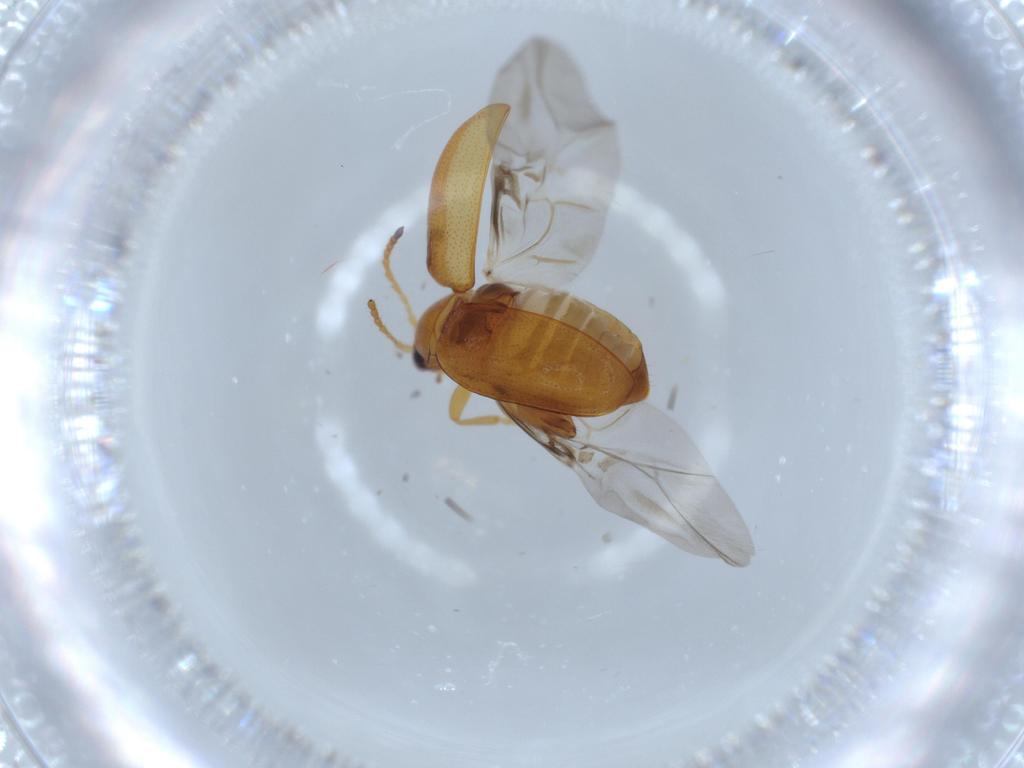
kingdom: Animalia
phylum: Arthropoda
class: Insecta
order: Coleoptera
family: Chrysomelidae
